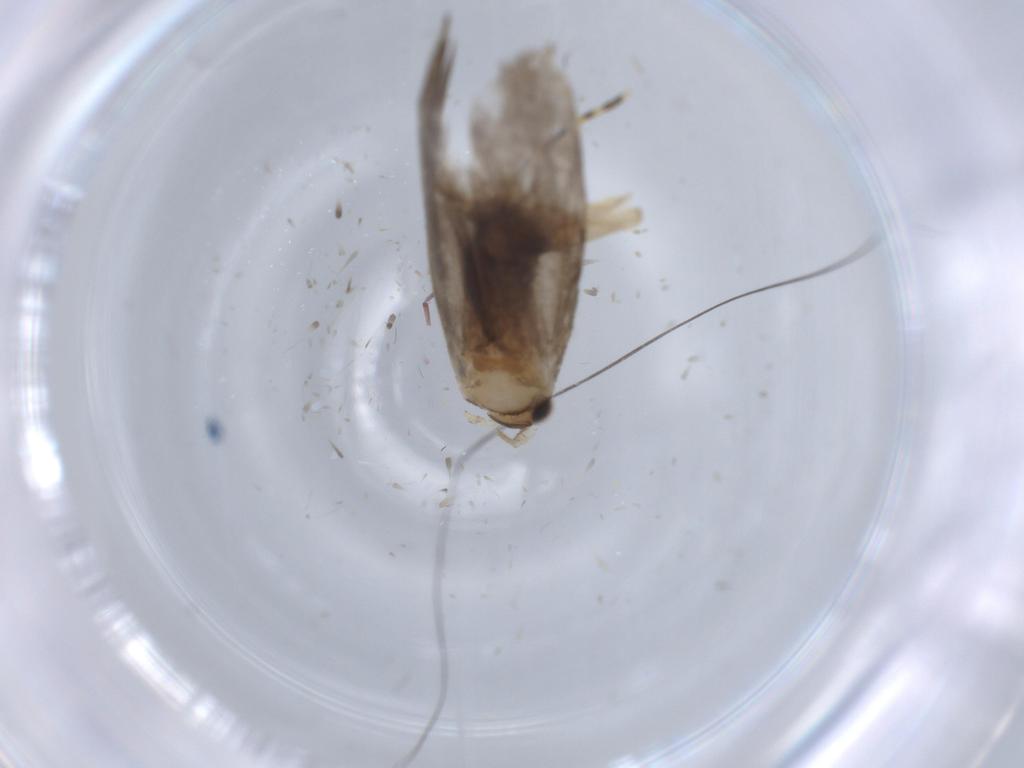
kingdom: Animalia
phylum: Arthropoda
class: Insecta
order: Lepidoptera
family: Tineidae
